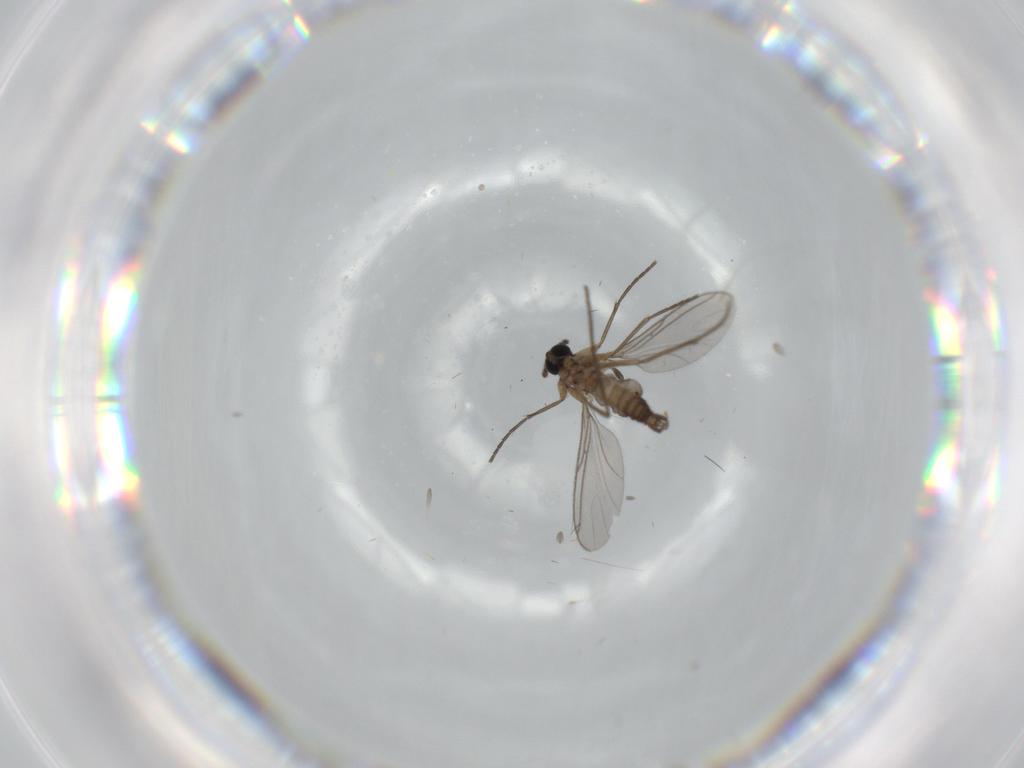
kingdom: Animalia
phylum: Arthropoda
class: Insecta
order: Diptera
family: Sciaridae
